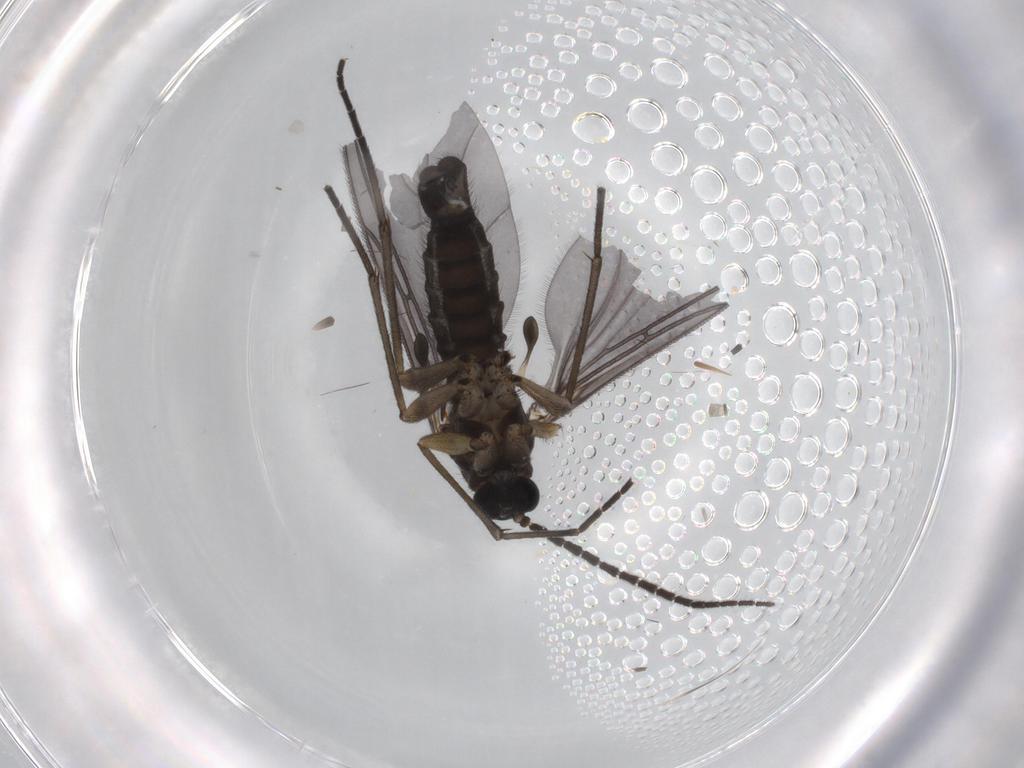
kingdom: Animalia
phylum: Arthropoda
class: Insecta
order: Diptera
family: Sciaridae
